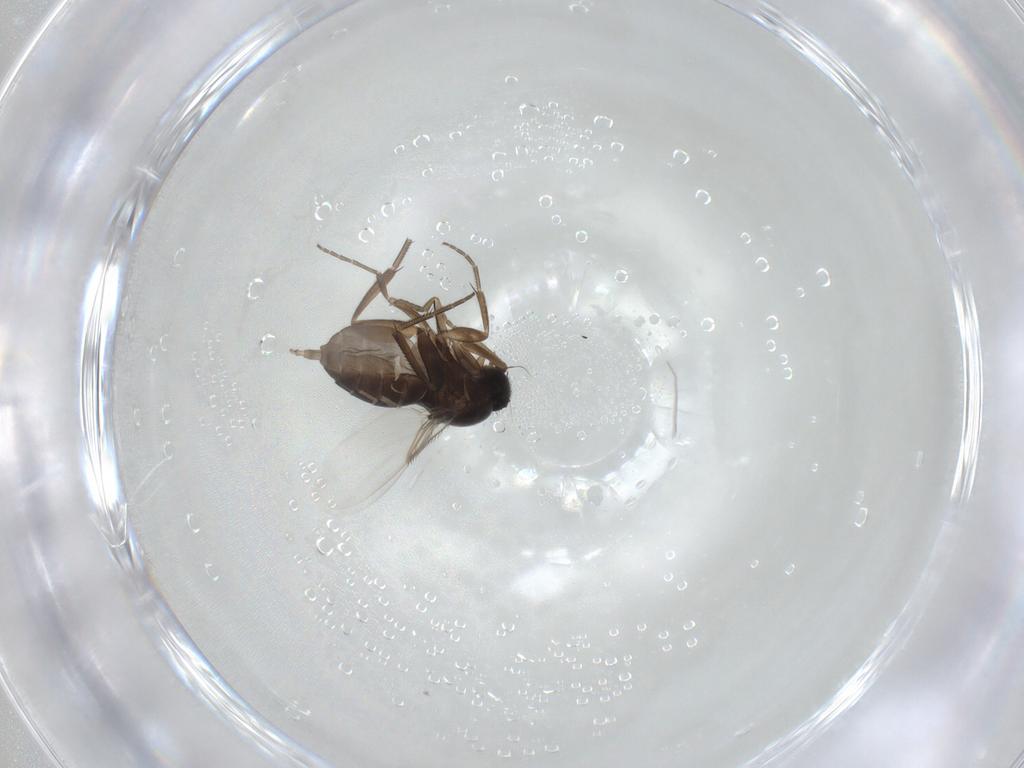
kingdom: Animalia
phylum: Arthropoda
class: Insecta
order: Diptera
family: Phoridae
